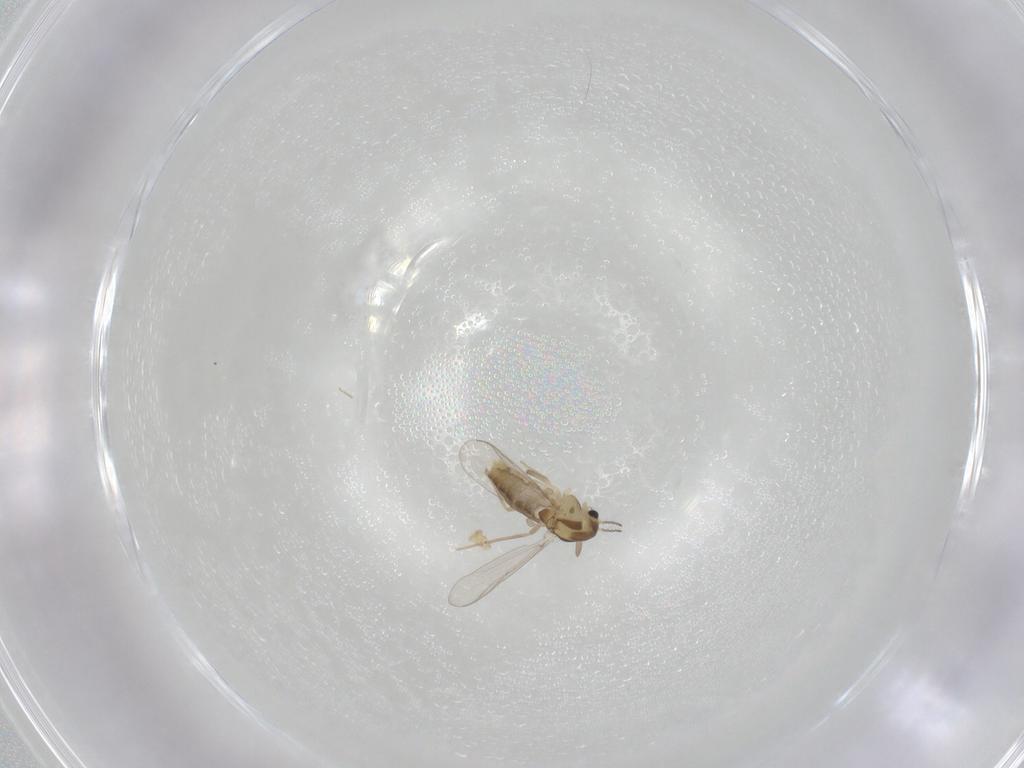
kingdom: Animalia
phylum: Arthropoda
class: Insecta
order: Diptera
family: Chironomidae
